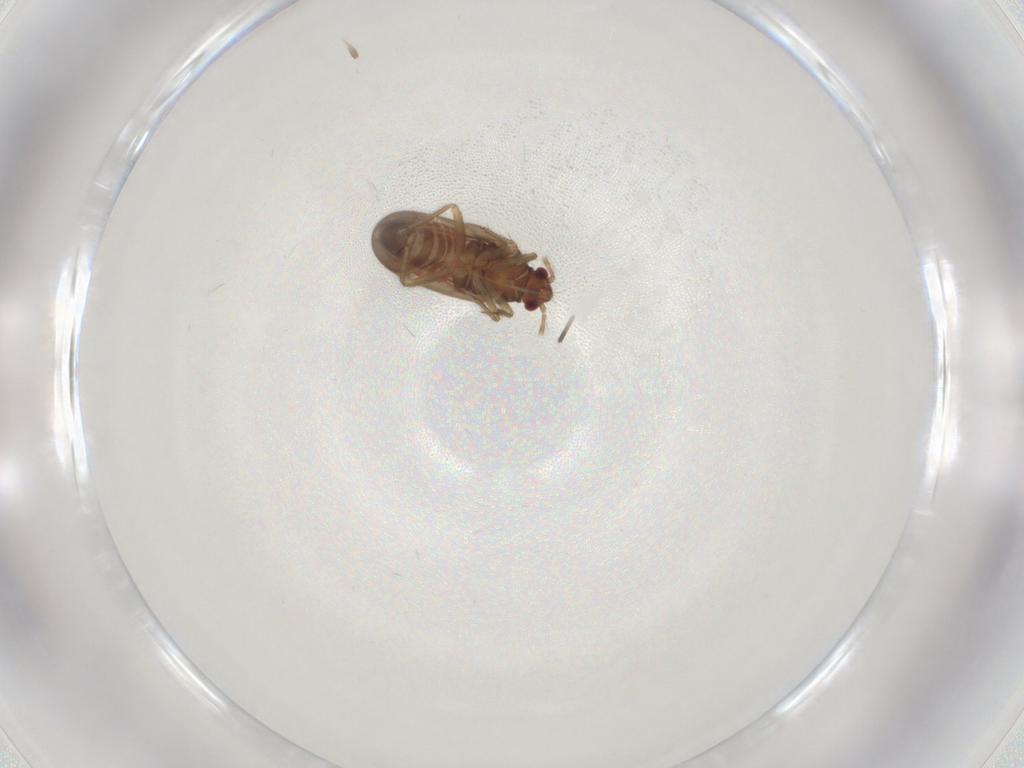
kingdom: Animalia
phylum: Arthropoda
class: Insecta
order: Hemiptera
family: Ceratocombidae
